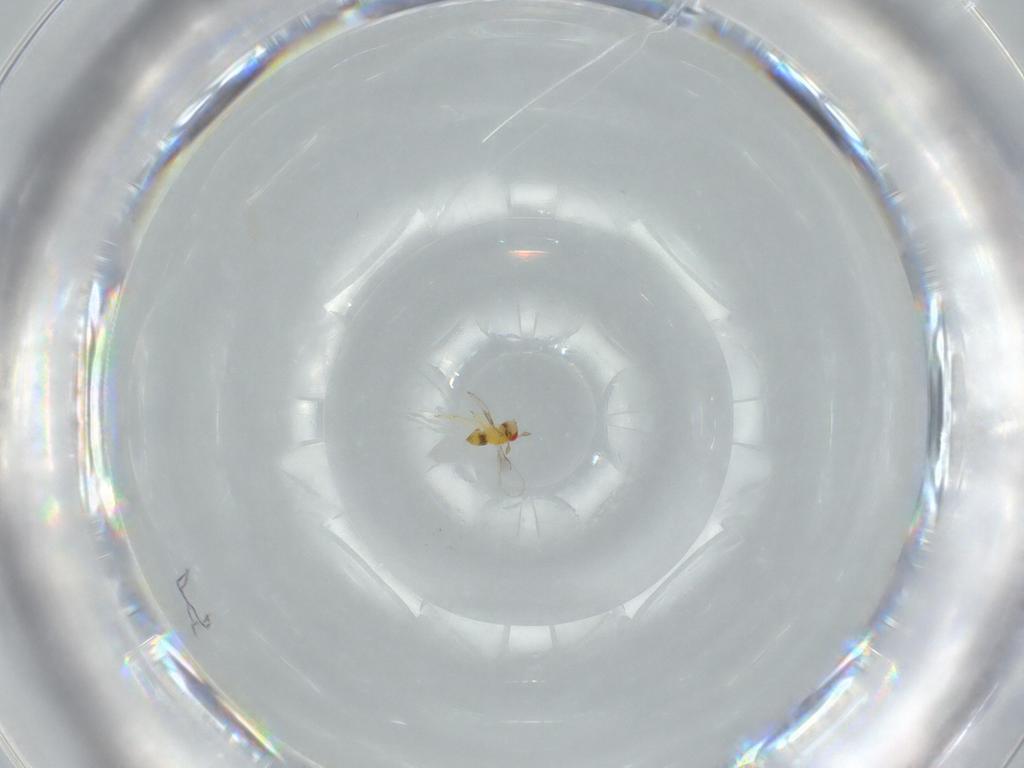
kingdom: Animalia
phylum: Arthropoda
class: Insecta
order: Hymenoptera
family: Trichogrammatidae
